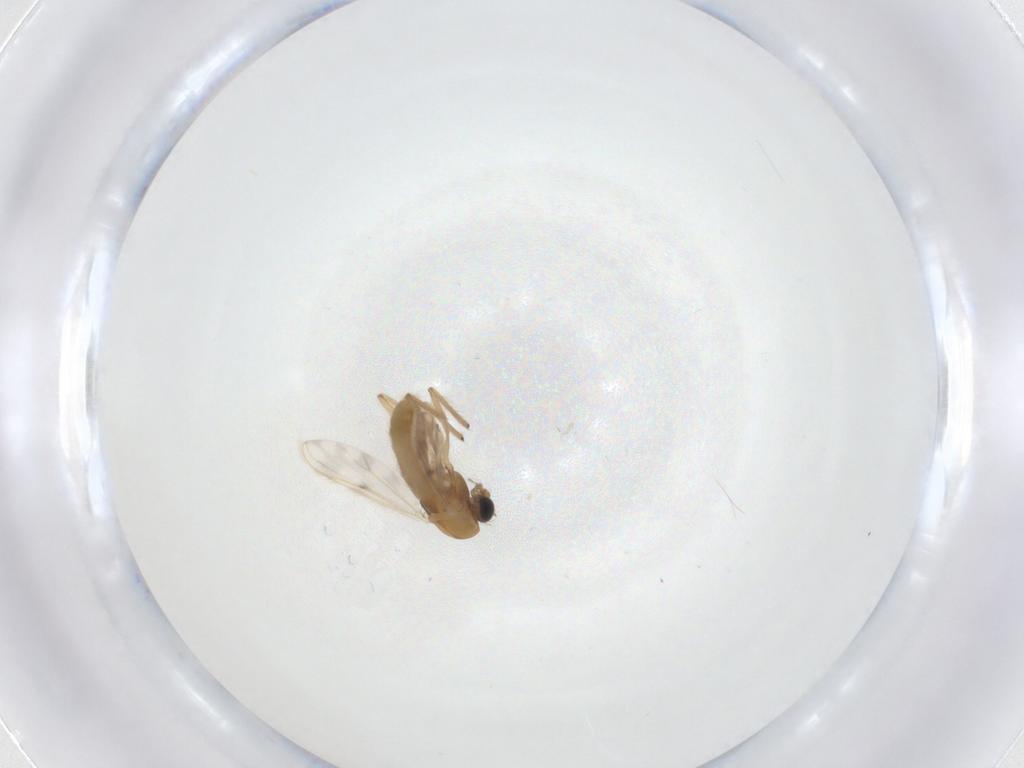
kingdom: Animalia
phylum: Arthropoda
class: Insecta
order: Diptera
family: Chironomidae
